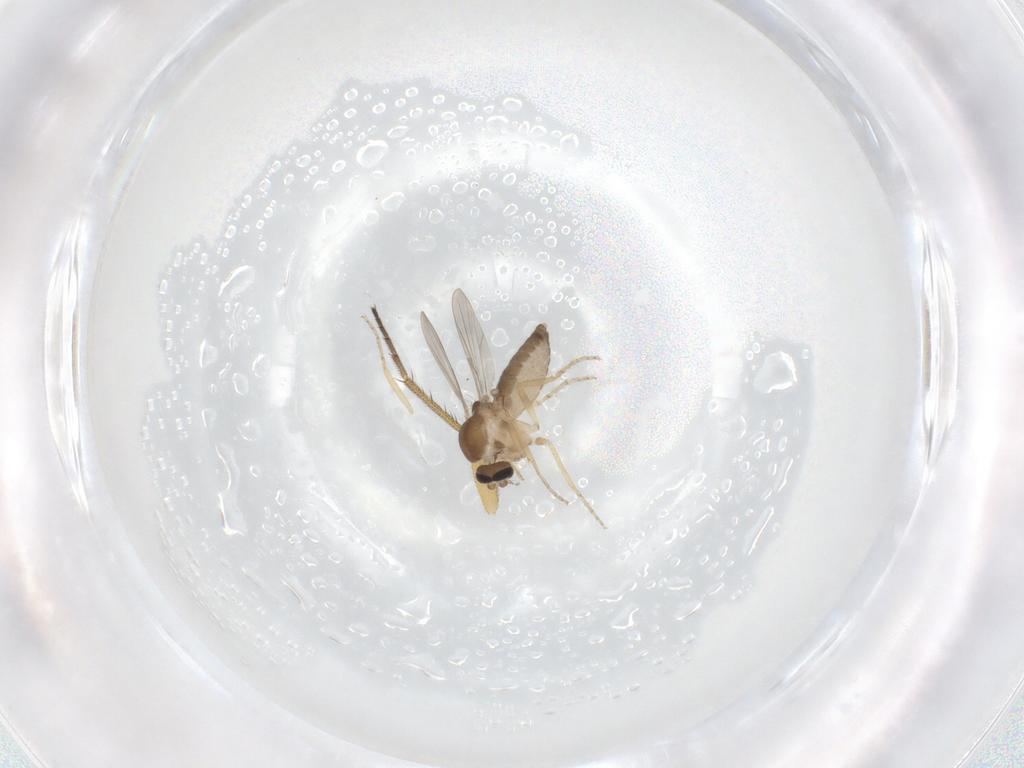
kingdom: Animalia
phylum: Arthropoda
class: Insecta
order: Diptera
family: Ceratopogonidae
